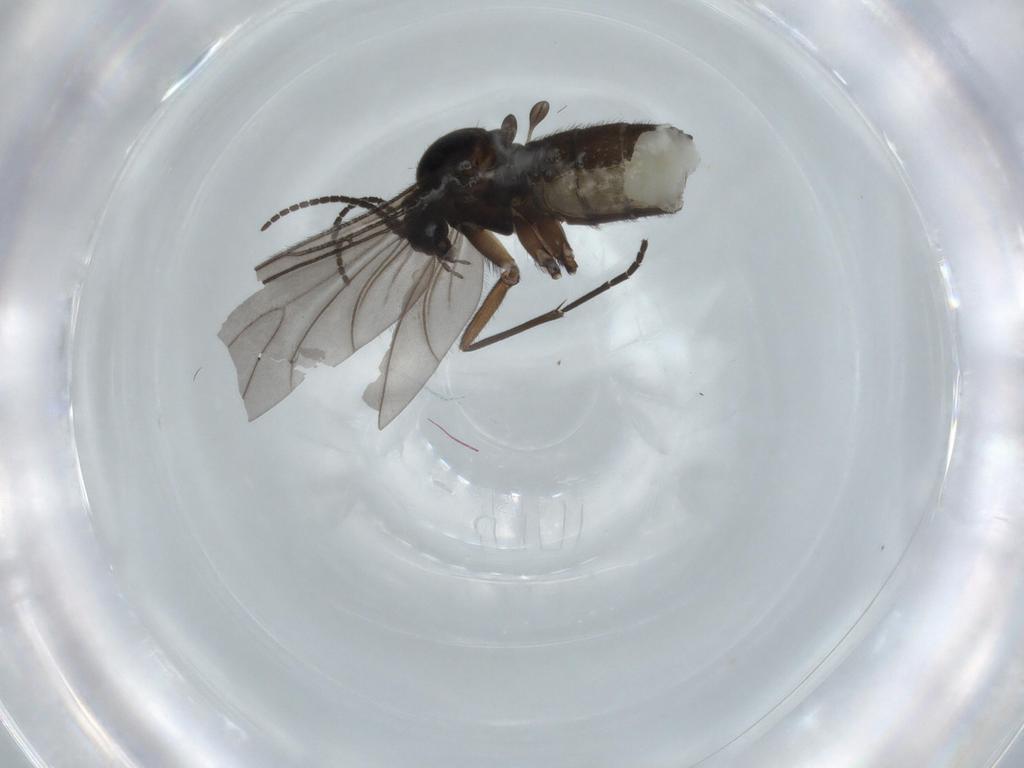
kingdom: Animalia
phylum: Arthropoda
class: Insecta
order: Diptera
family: Sciaridae
